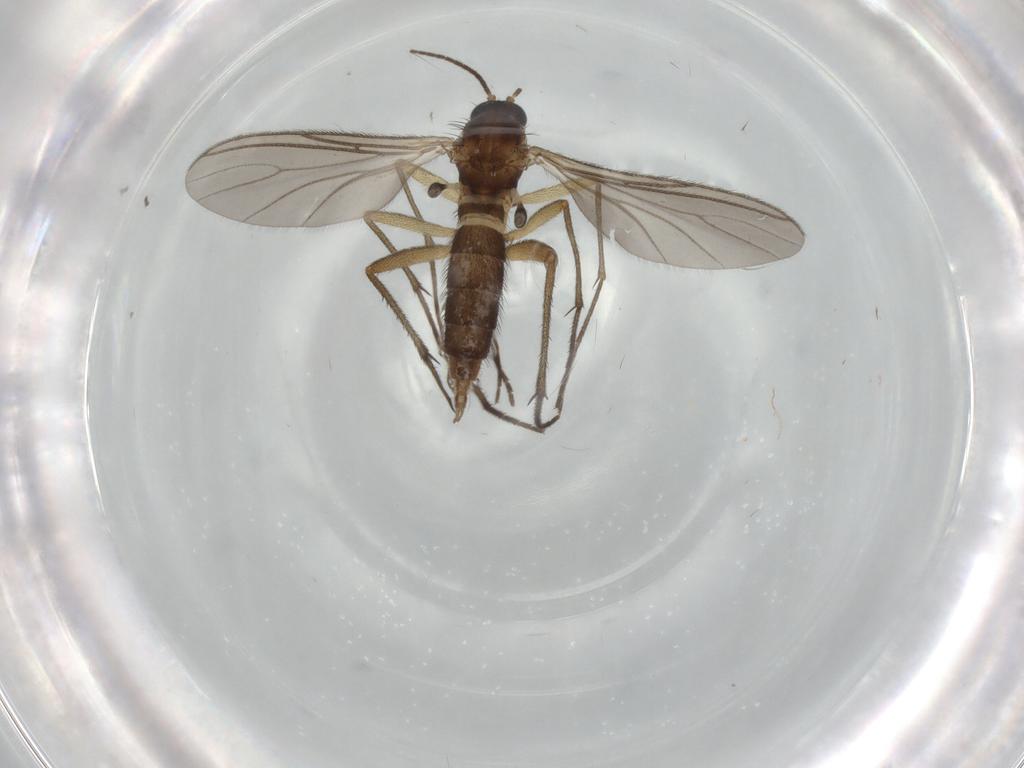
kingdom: Animalia
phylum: Arthropoda
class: Insecta
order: Diptera
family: Sciaridae
